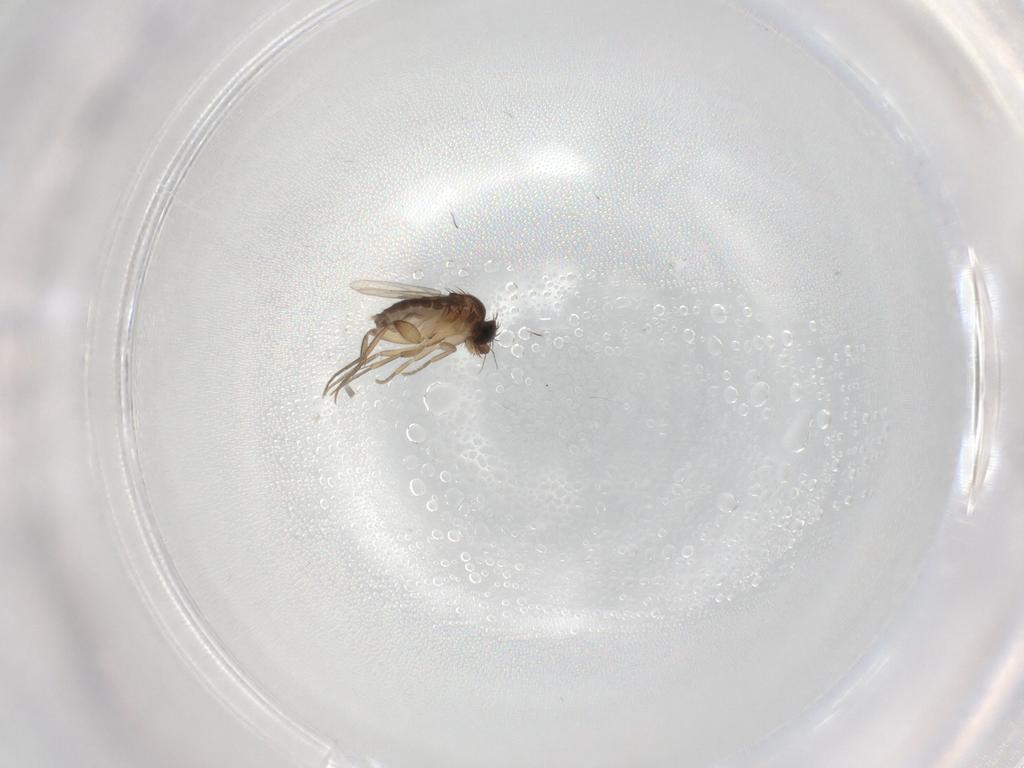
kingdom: Animalia
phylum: Arthropoda
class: Insecta
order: Diptera
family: Chironomidae
